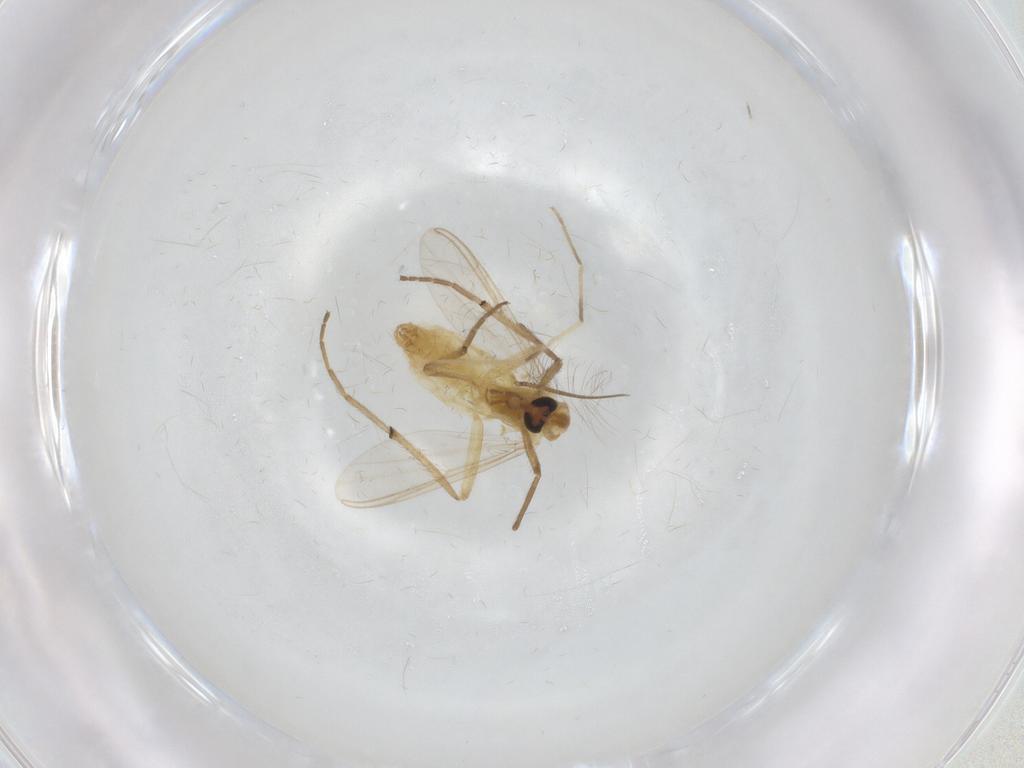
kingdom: Animalia
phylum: Arthropoda
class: Insecta
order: Diptera
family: Chironomidae
